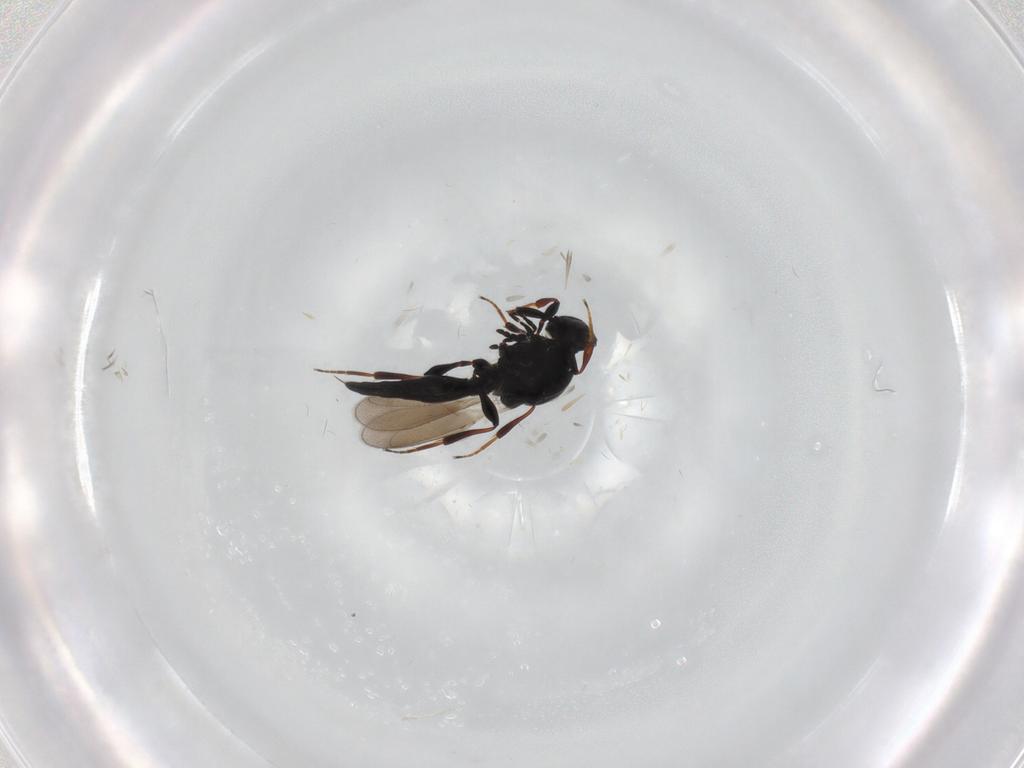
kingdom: Animalia
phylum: Arthropoda
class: Insecta
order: Hymenoptera
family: Platygastridae
